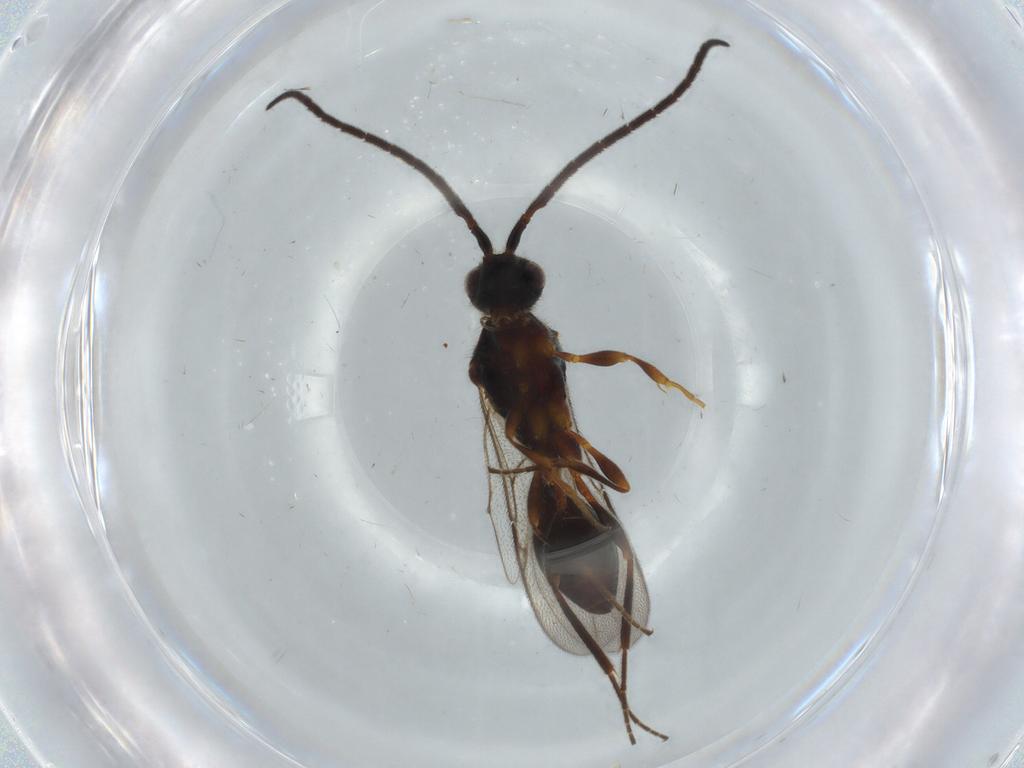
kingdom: Animalia
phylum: Arthropoda
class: Insecta
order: Hymenoptera
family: Diapriidae
